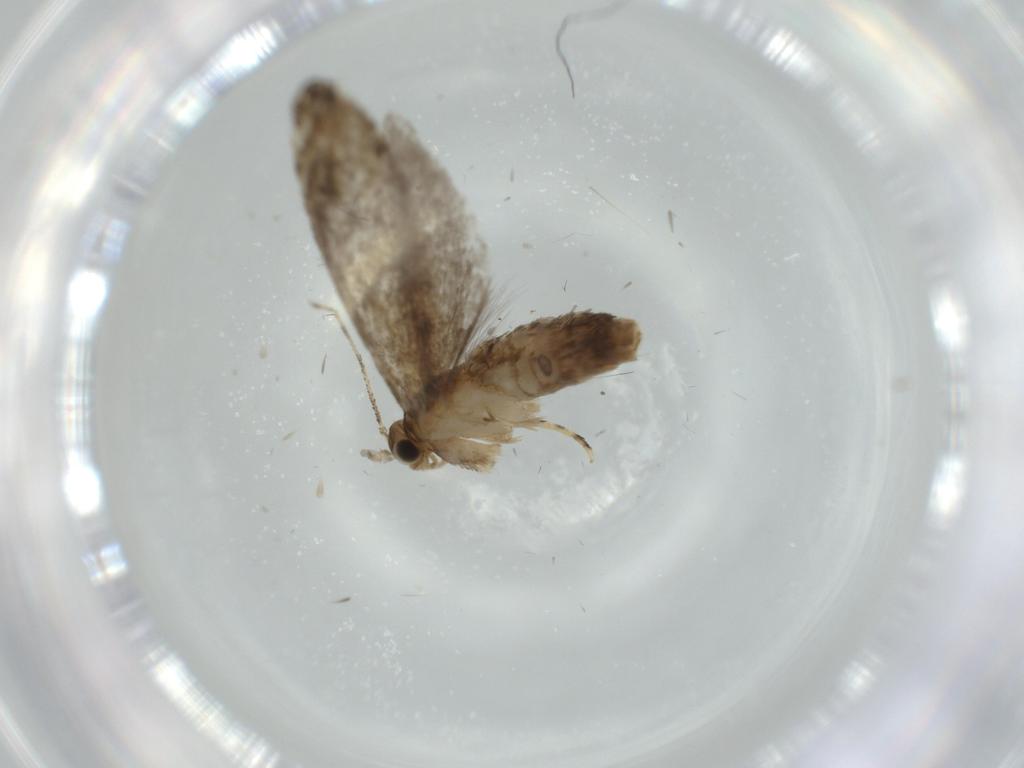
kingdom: Animalia
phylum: Arthropoda
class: Insecta
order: Lepidoptera
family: Tineidae
